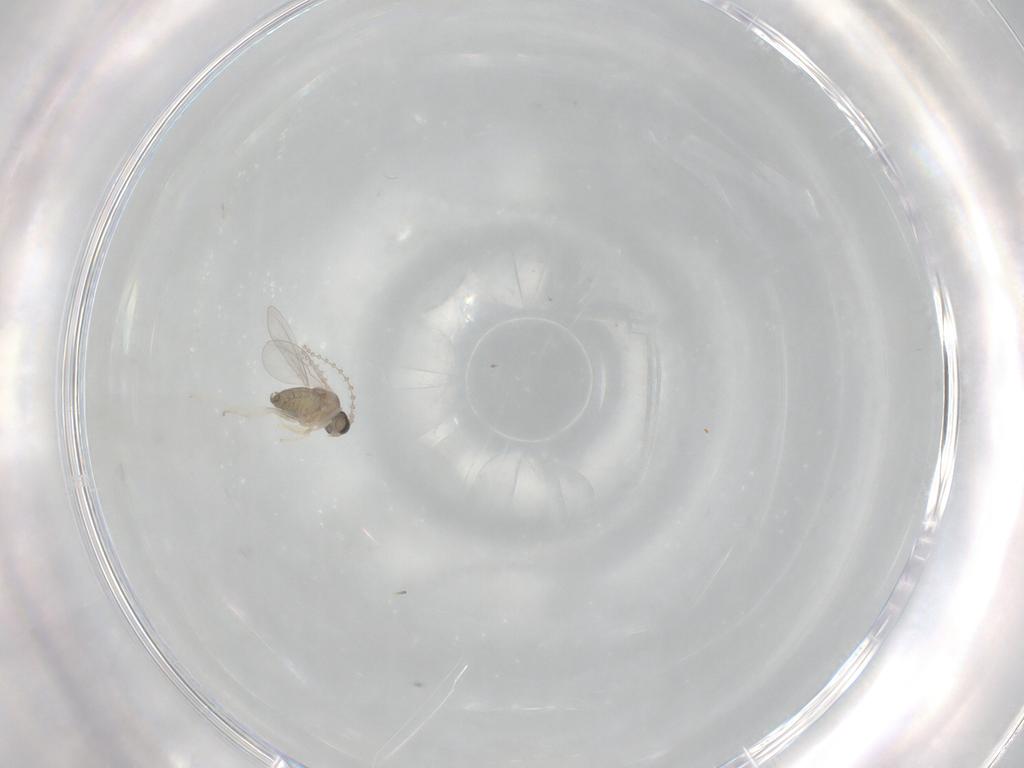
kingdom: Animalia
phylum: Arthropoda
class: Insecta
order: Diptera
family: Cecidomyiidae
